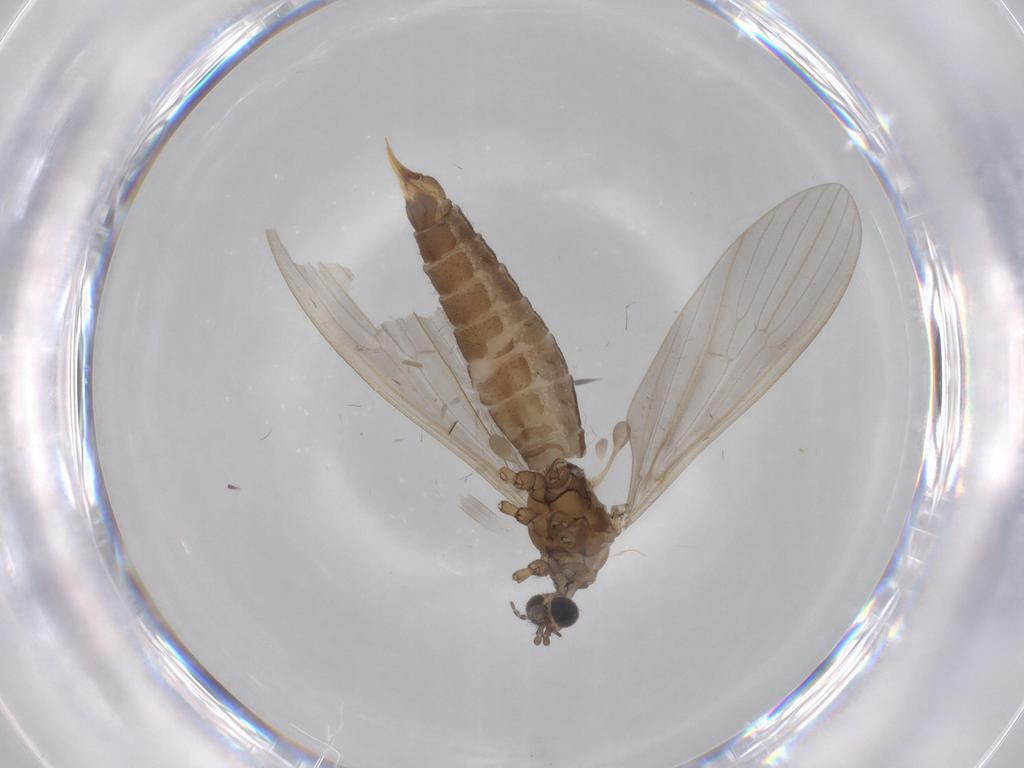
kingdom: Animalia
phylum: Arthropoda
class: Insecta
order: Diptera
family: Limoniidae
